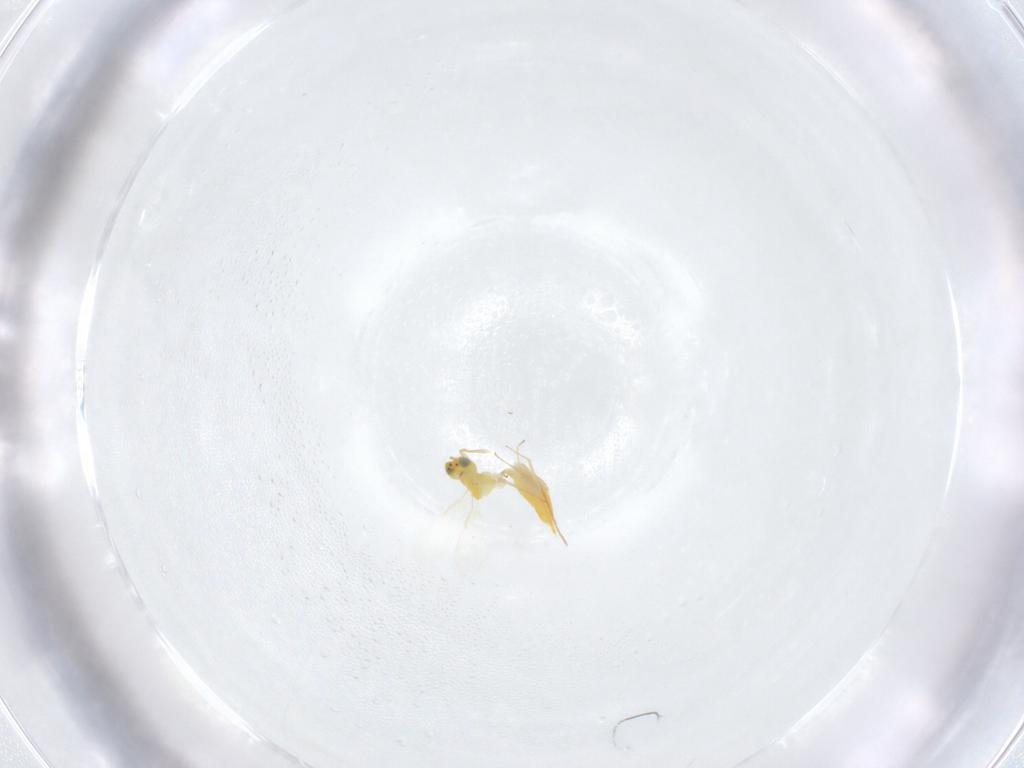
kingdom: Animalia
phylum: Arthropoda
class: Insecta
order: Hymenoptera
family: Aphelinidae
